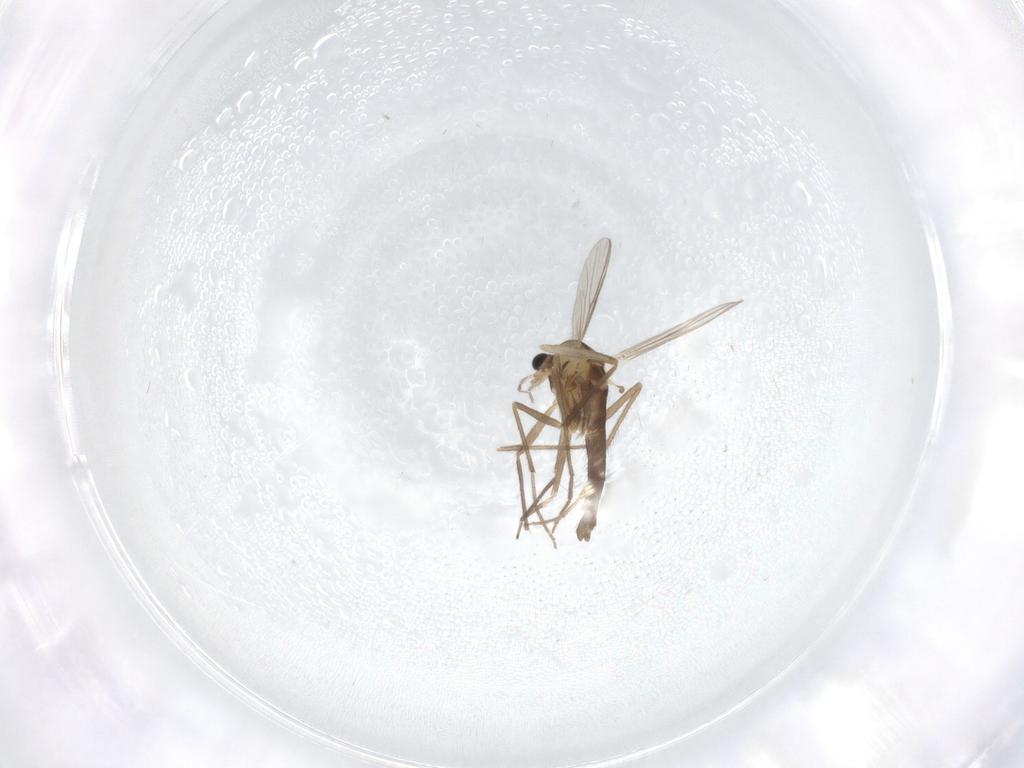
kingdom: Animalia
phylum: Arthropoda
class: Insecta
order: Diptera
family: Chironomidae
